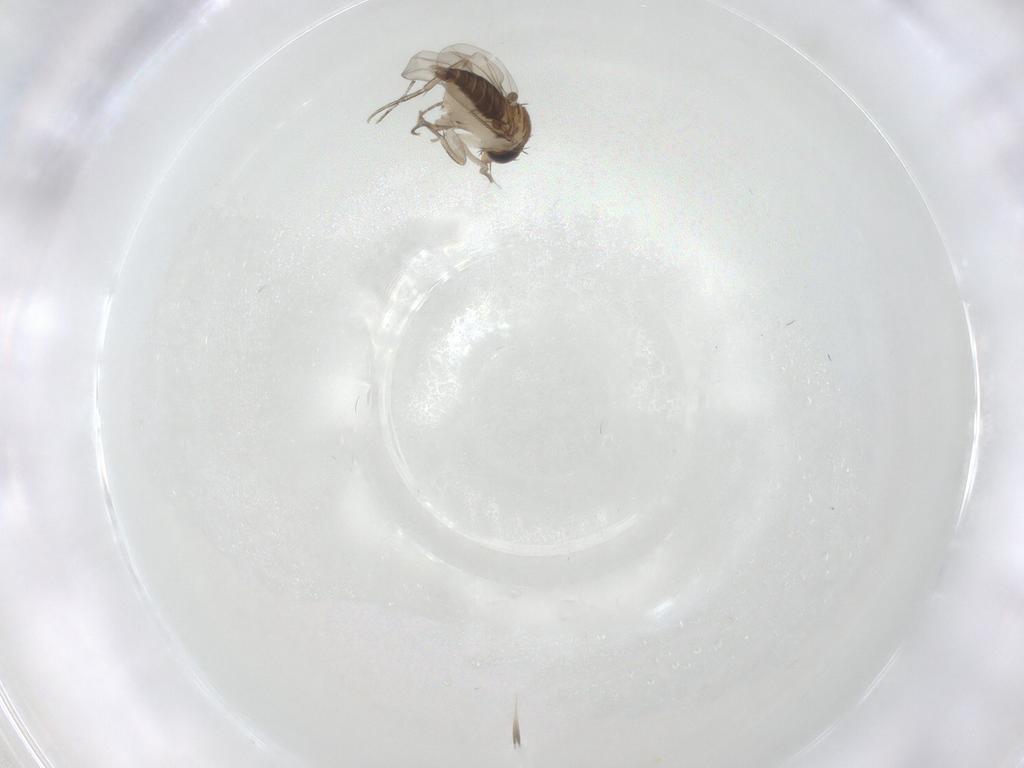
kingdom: Animalia
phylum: Arthropoda
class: Insecta
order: Diptera
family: Phoridae
